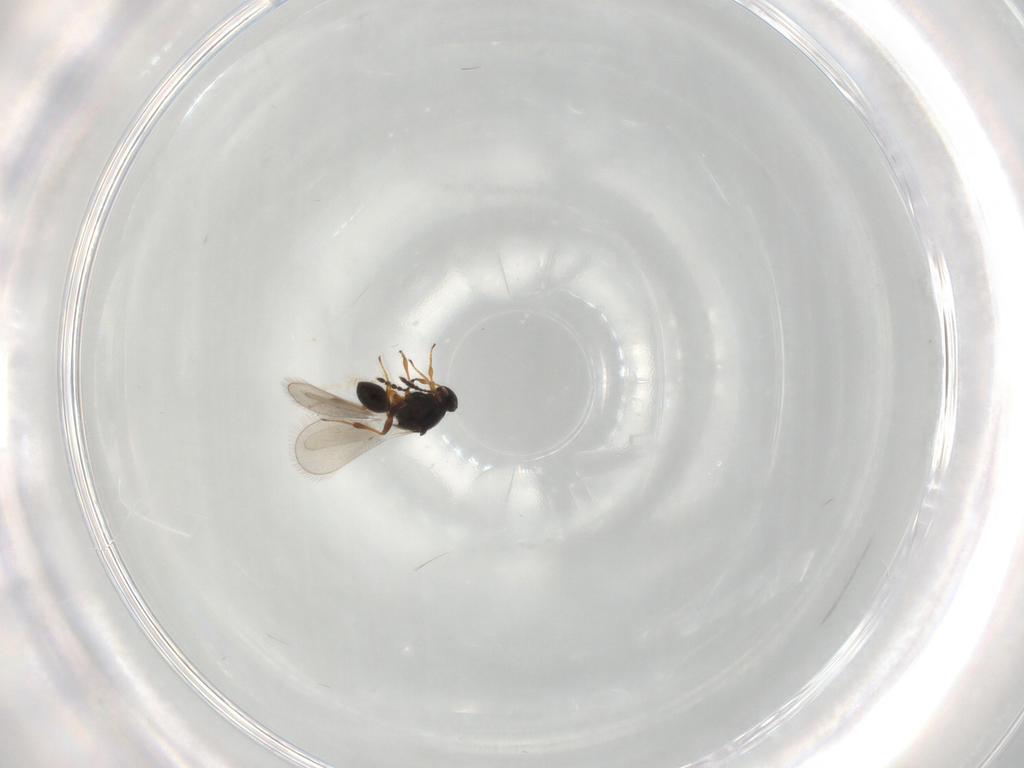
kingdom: Animalia
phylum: Arthropoda
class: Insecta
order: Hymenoptera
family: Platygastridae
